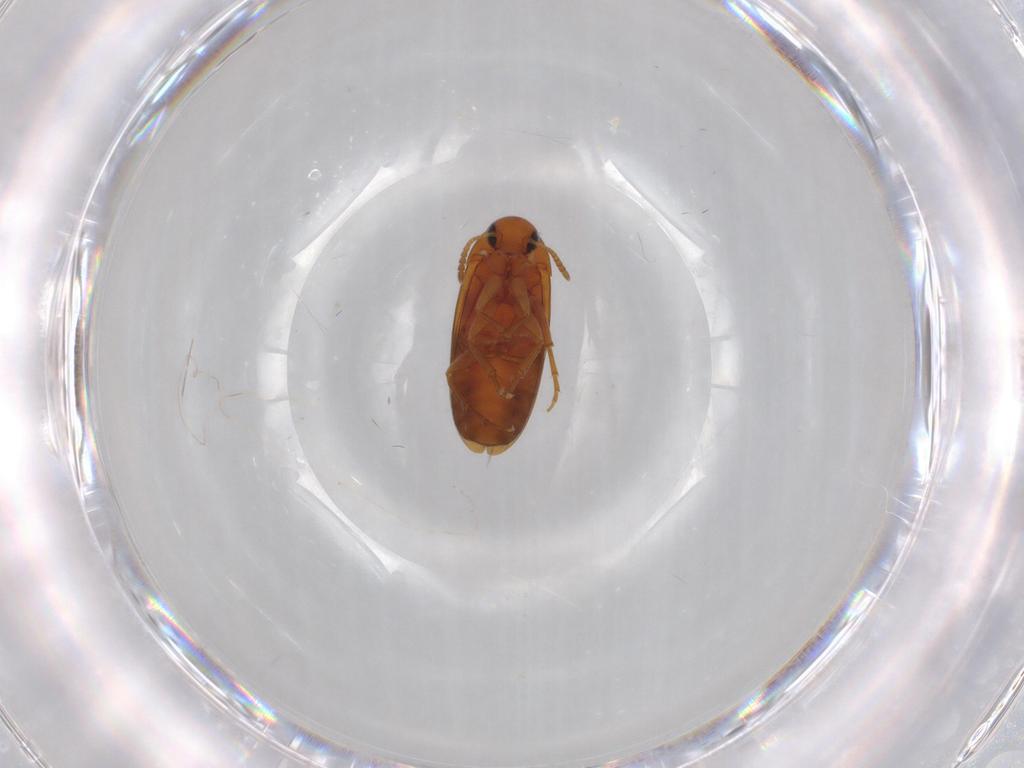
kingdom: Animalia
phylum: Arthropoda
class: Insecta
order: Coleoptera
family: Scraptiidae
